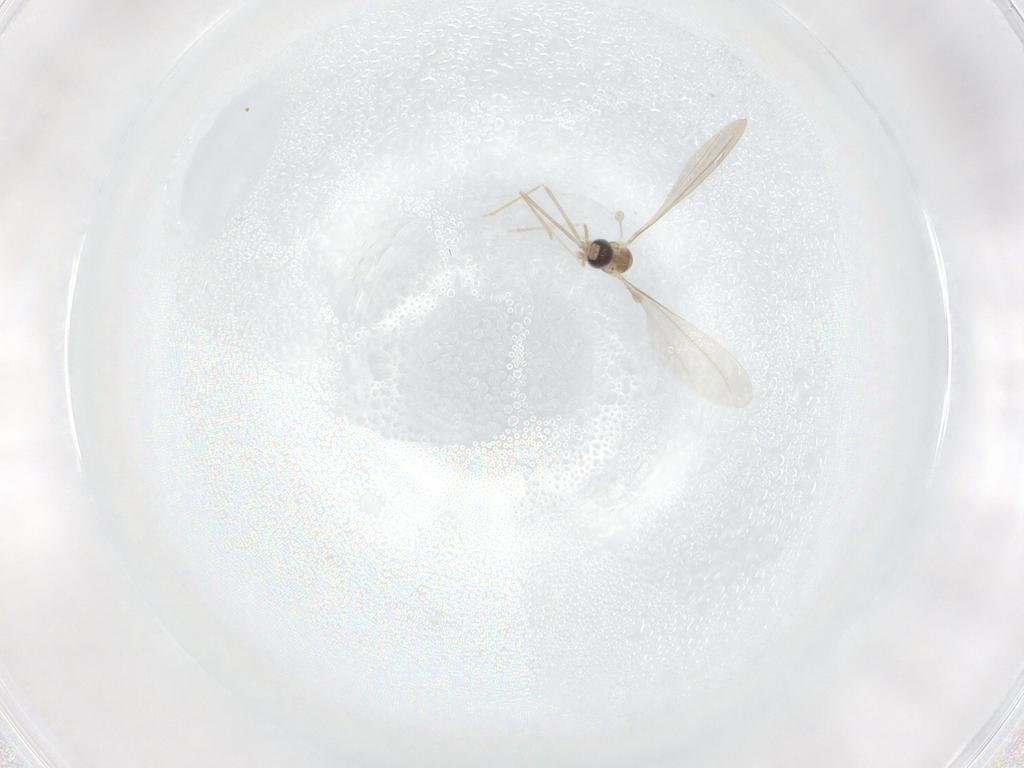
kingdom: Animalia
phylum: Arthropoda
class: Insecta
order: Diptera
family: Cecidomyiidae
